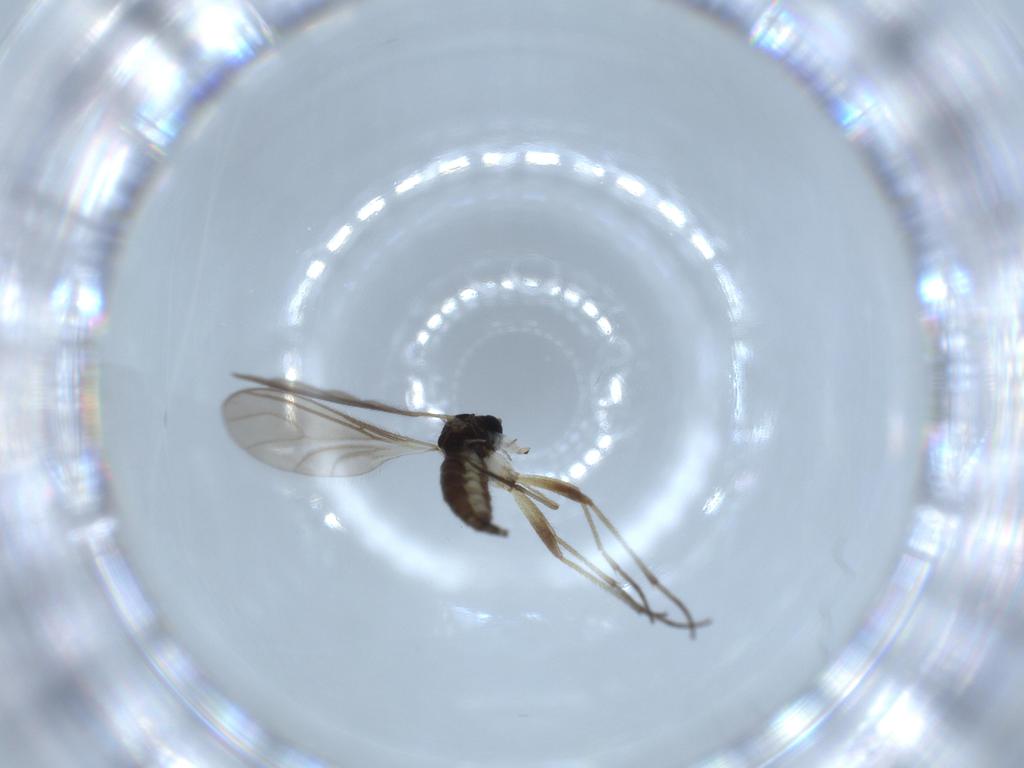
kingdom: Animalia
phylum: Arthropoda
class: Insecta
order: Diptera
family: Sciaridae
